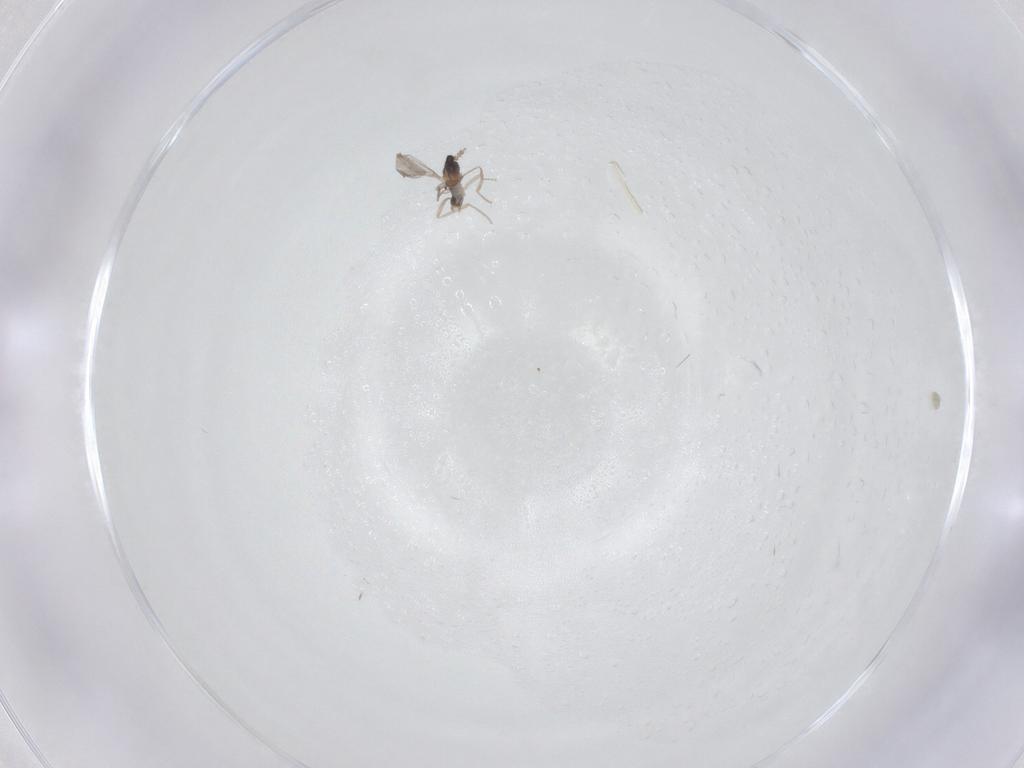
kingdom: Animalia
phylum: Arthropoda
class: Insecta
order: Diptera
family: Cecidomyiidae
